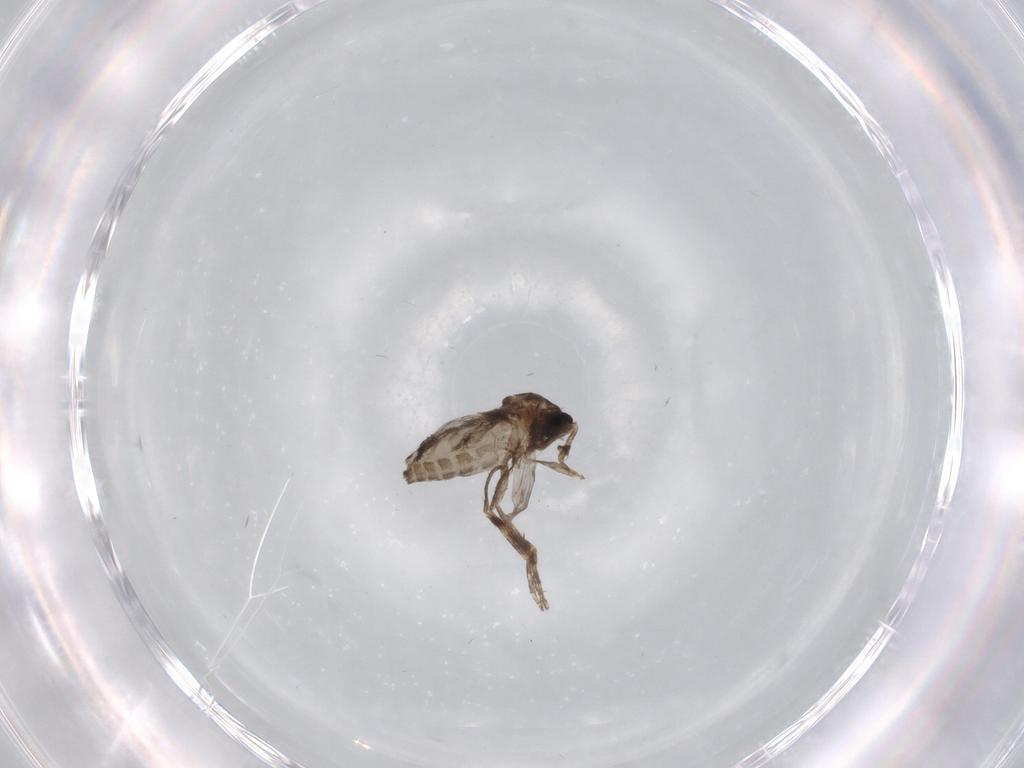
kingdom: Animalia
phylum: Arthropoda
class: Insecta
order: Diptera
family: Ceratopogonidae
